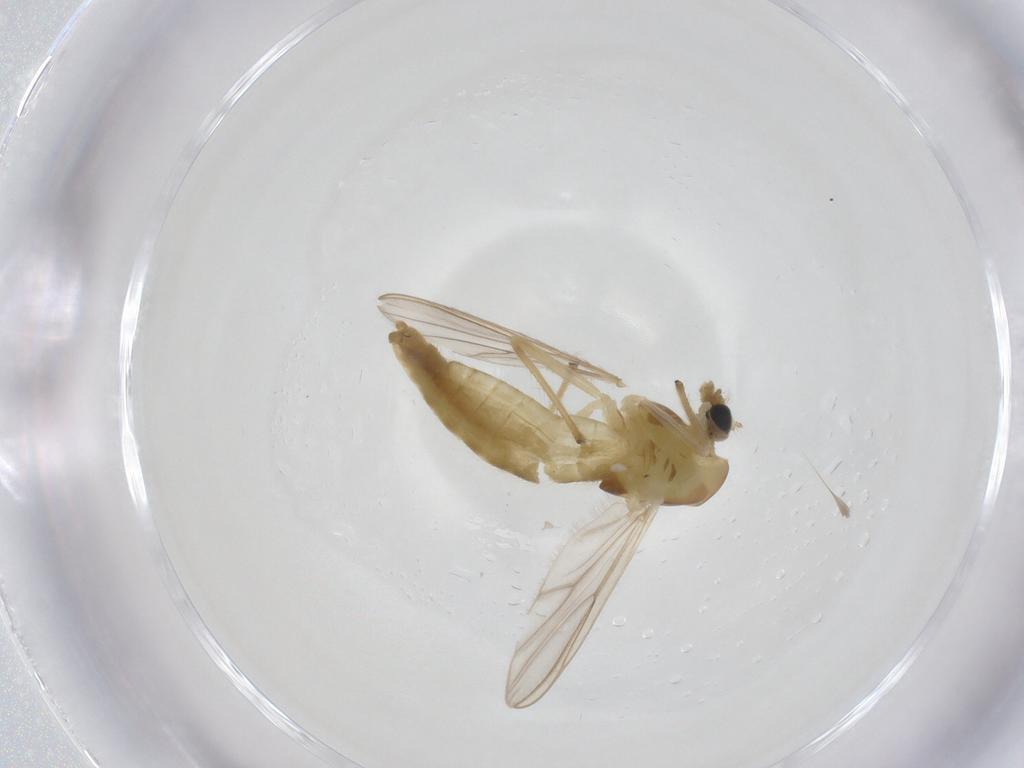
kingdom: Animalia
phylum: Arthropoda
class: Insecta
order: Diptera
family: Chironomidae
